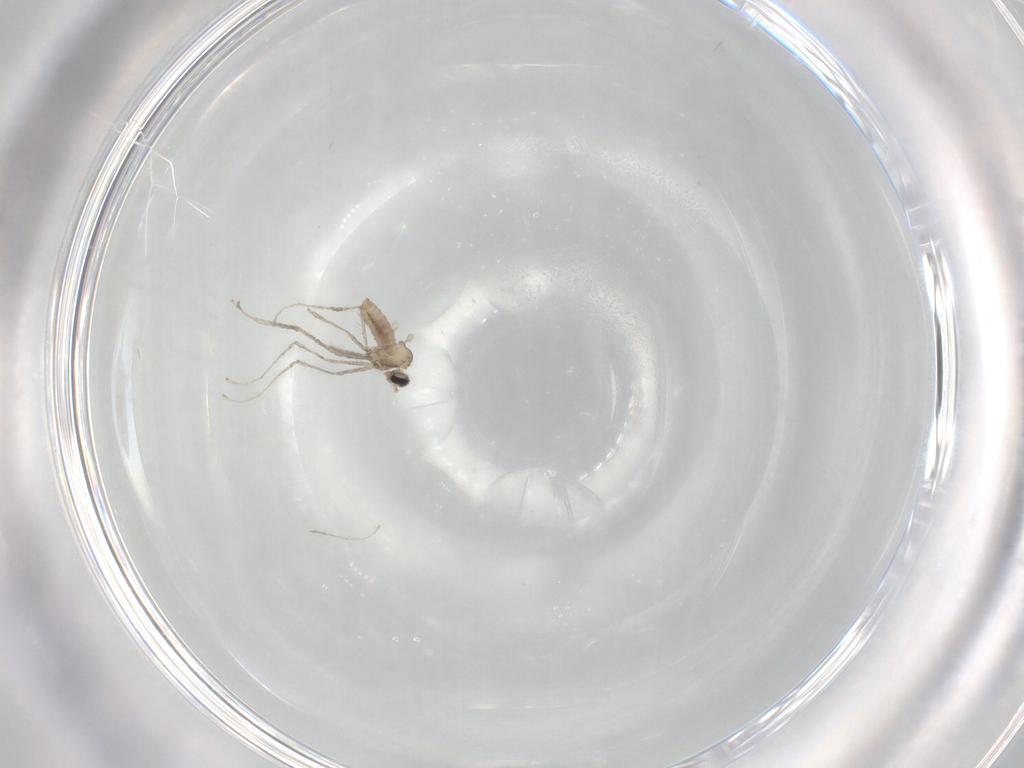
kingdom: Animalia
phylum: Arthropoda
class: Insecta
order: Diptera
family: Cecidomyiidae
